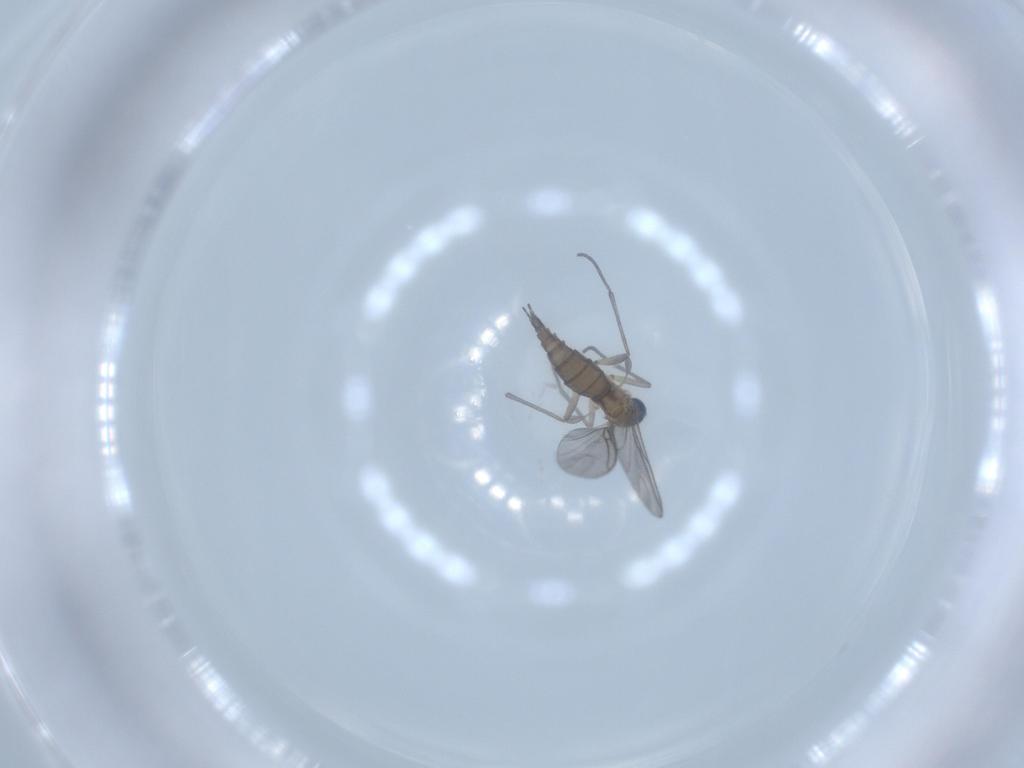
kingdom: Animalia
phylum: Arthropoda
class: Insecta
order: Diptera
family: Sciaridae
